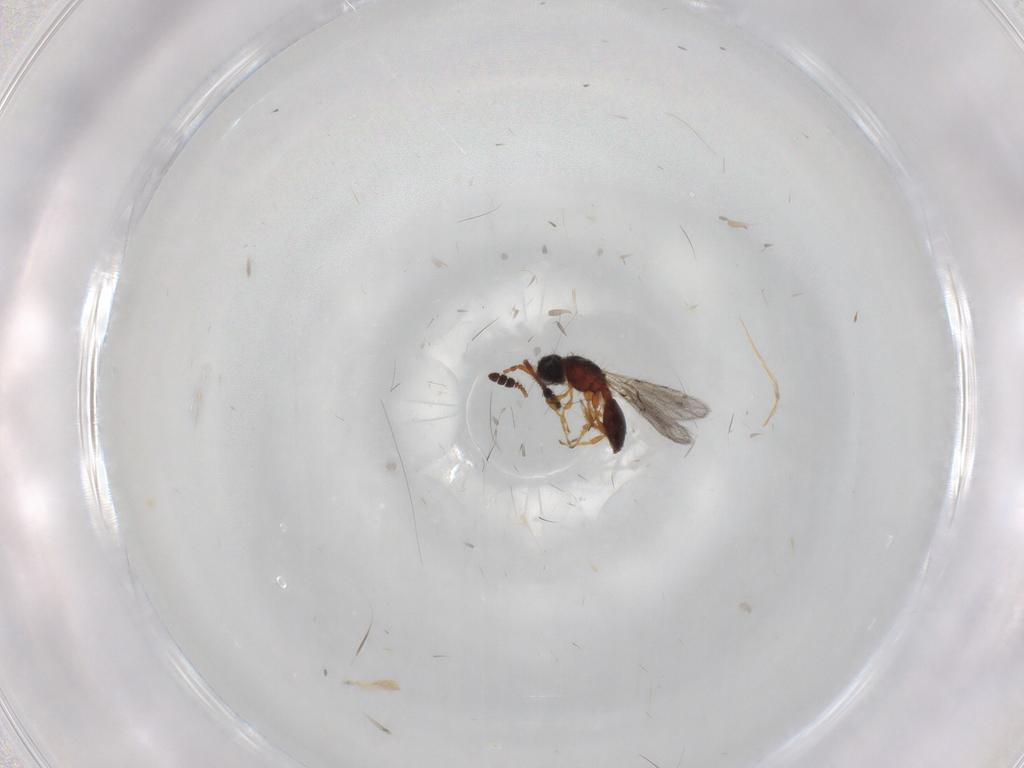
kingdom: Animalia
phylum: Arthropoda
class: Insecta
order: Hymenoptera
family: Diapriidae
